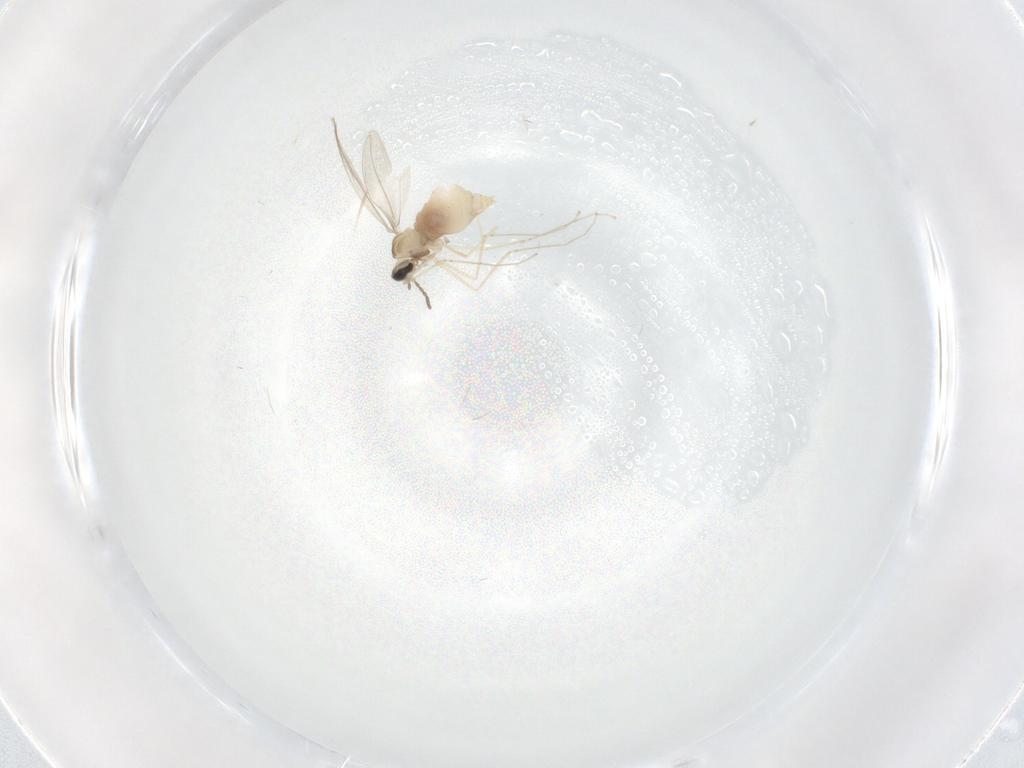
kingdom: Animalia
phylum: Arthropoda
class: Insecta
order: Diptera
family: Cecidomyiidae
